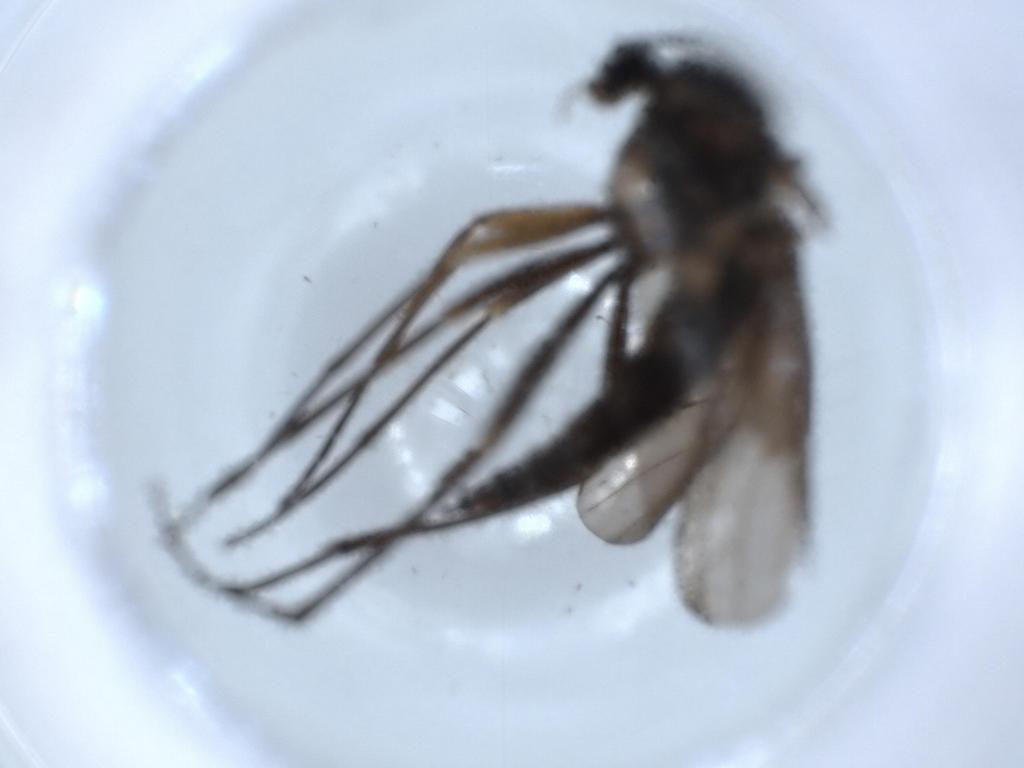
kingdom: Animalia
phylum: Arthropoda
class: Insecta
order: Diptera
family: Sciaridae
